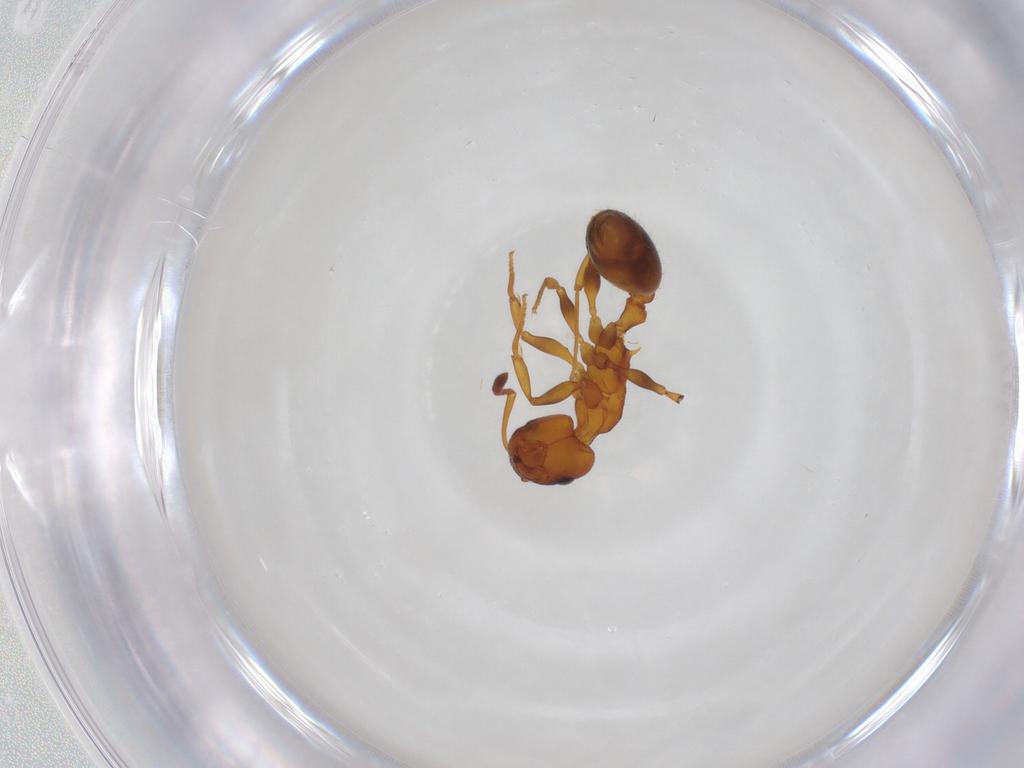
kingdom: Animalia
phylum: Arthropoda
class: Insecta
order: Hymenoptera
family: Formicidae
